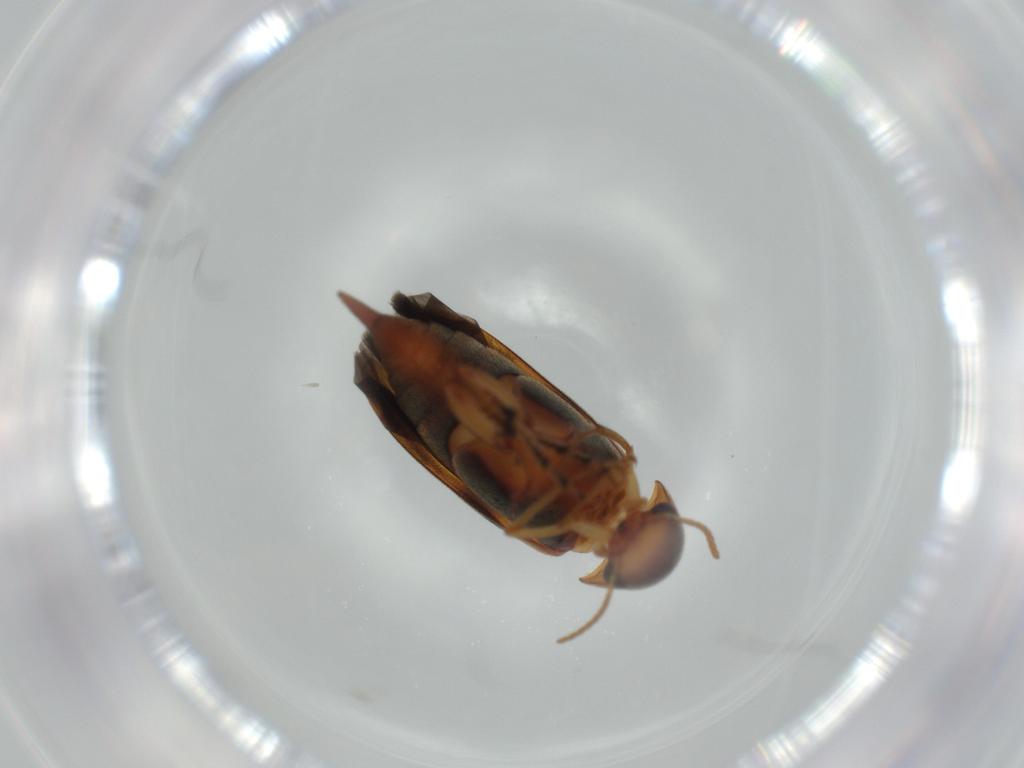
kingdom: Animalia
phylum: Arthropoda
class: Insecta
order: Coleoptera
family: Mordellidae
